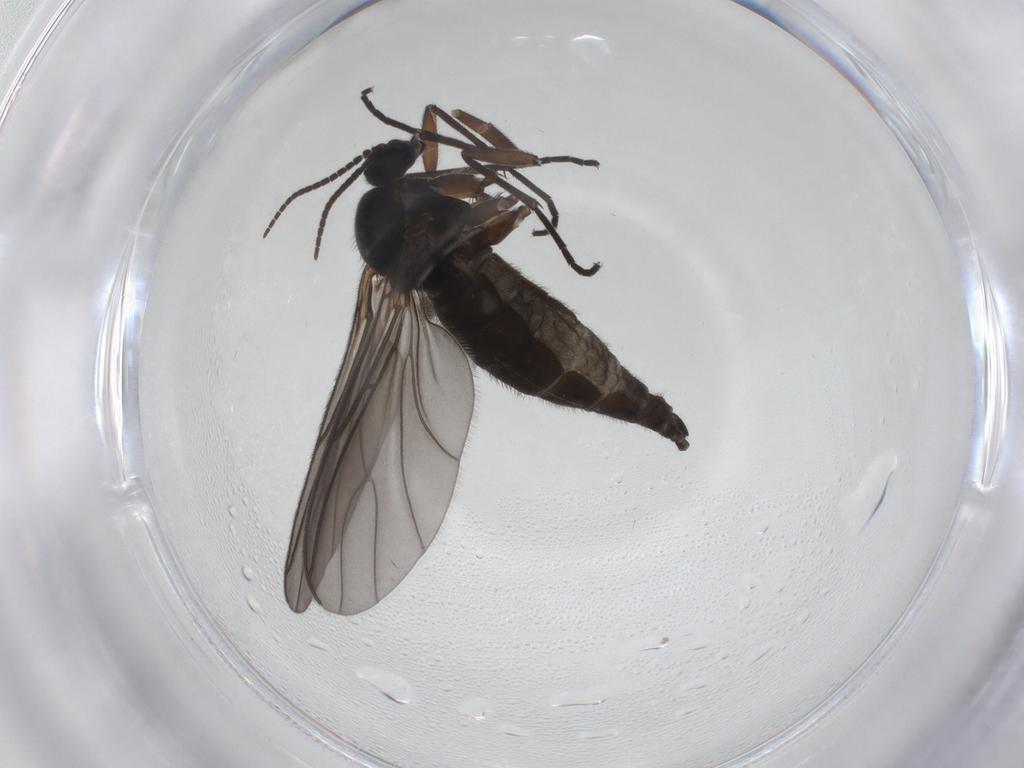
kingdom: Animalia
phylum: Arthropoda
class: Insecta
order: Diptera
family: Sciaridae
